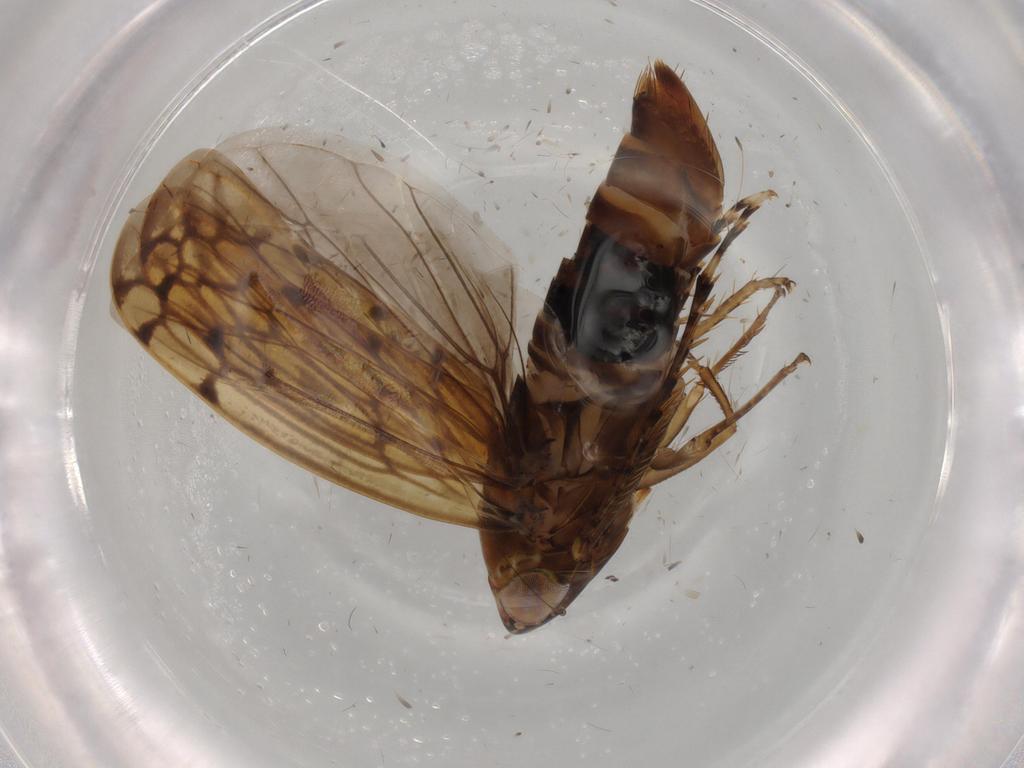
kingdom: Animalia
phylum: Arthropoda
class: Insecta
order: Hemiptera
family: Cicadellidae
